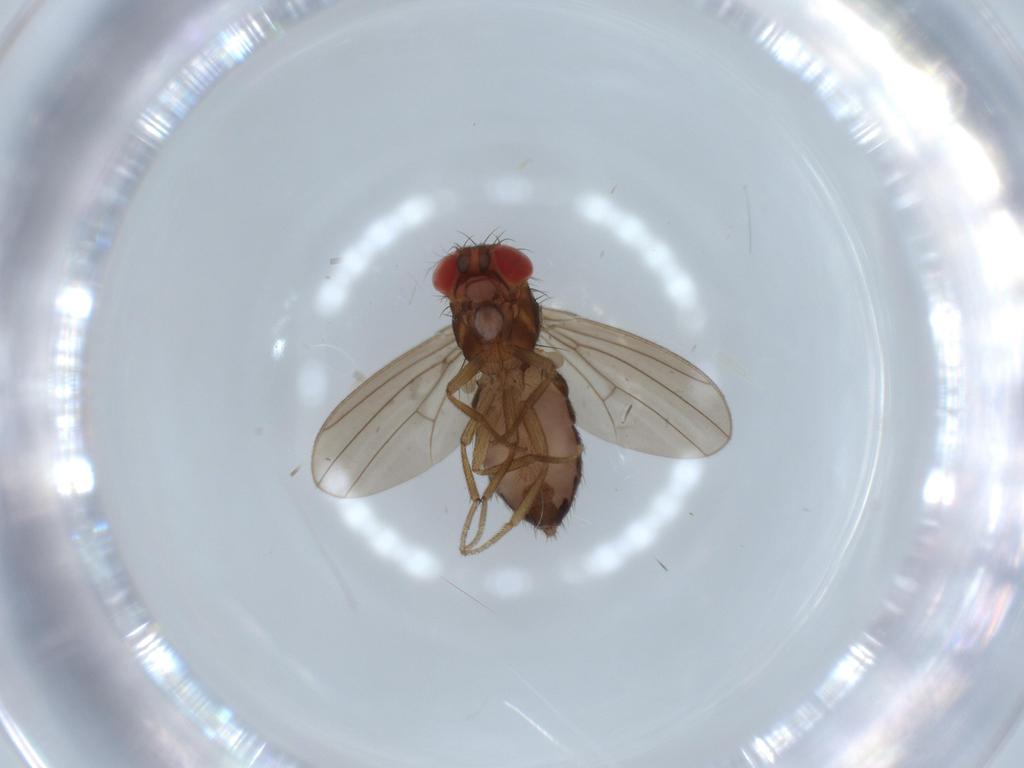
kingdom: Animalia
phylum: Arthropoda
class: Insecta
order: Diptera
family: Drosophilidae
